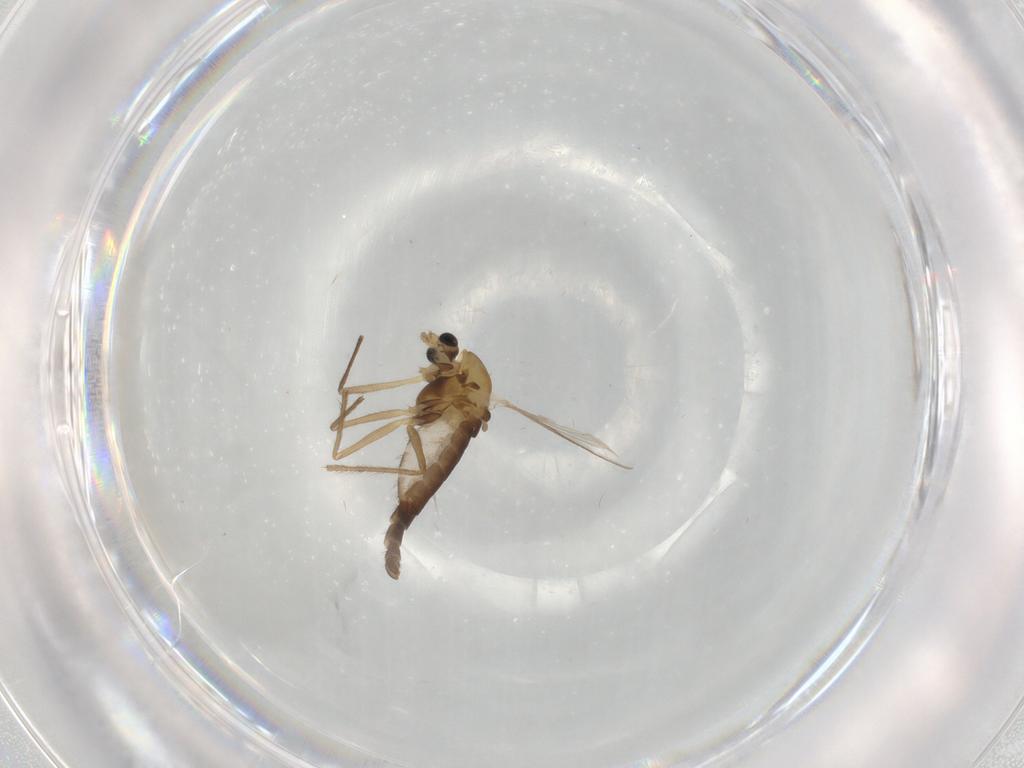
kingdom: Animalia
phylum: Arthropoda
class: Insecta
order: Diptera
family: Chironomidae
